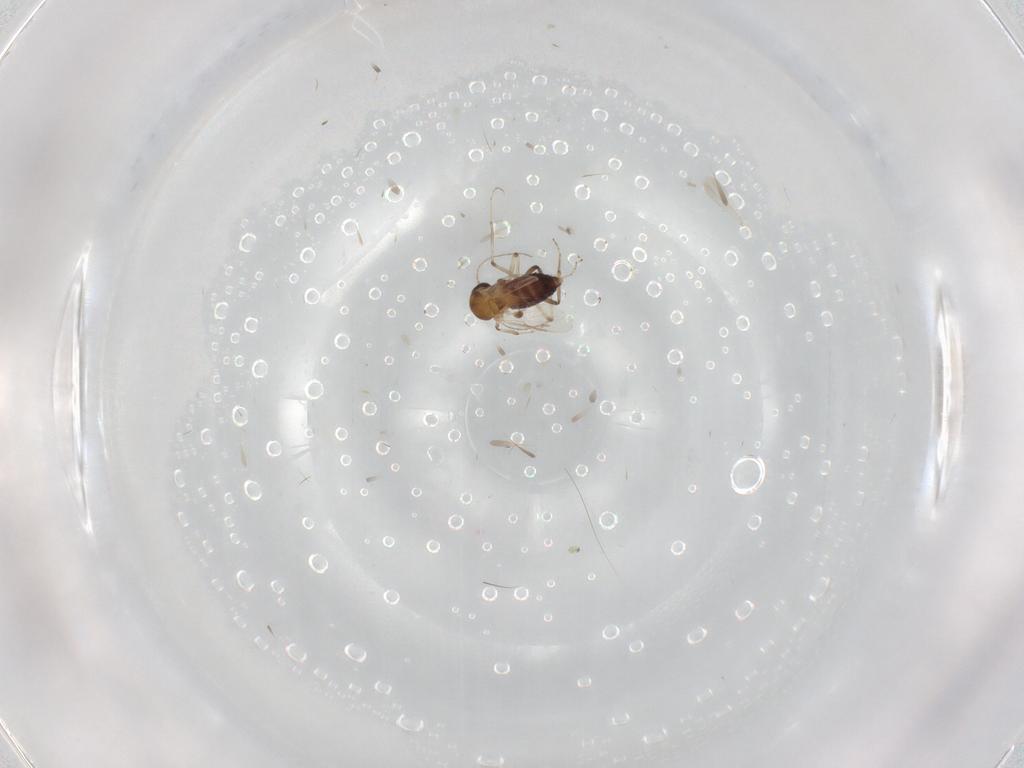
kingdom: Animalia
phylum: Arthropoda
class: Insecta
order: Diptera
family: Ceratopogonidae
